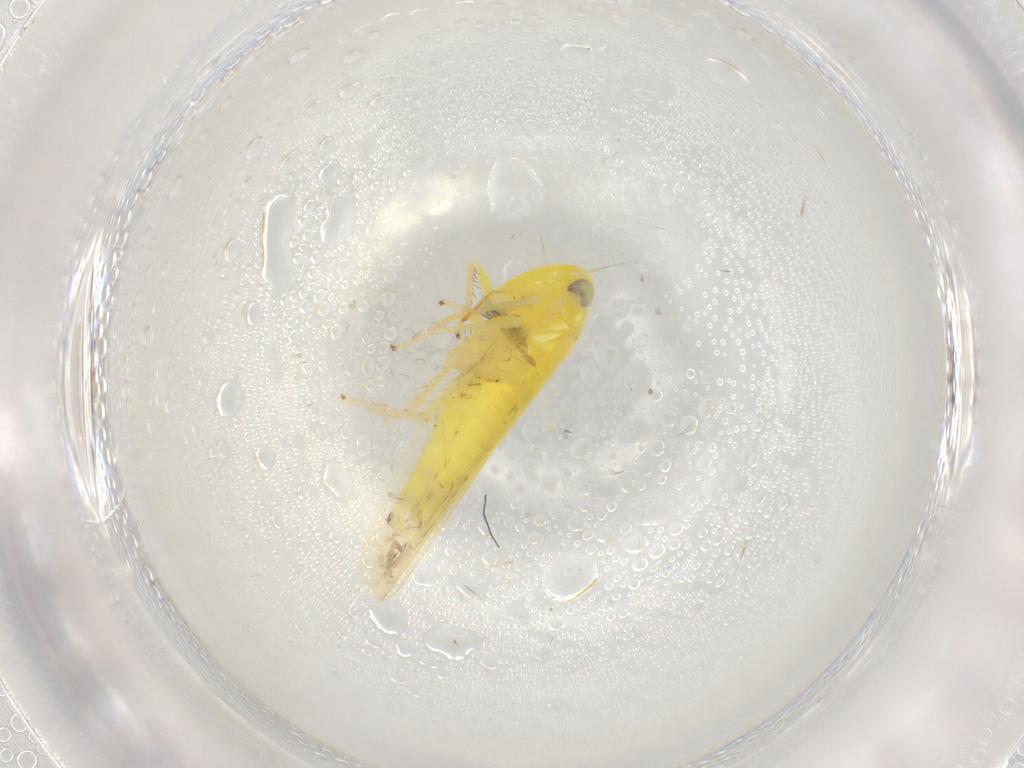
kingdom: Animalia
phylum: Arthropoda
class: Insecta
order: Hemiptera
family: Cicadellidae
